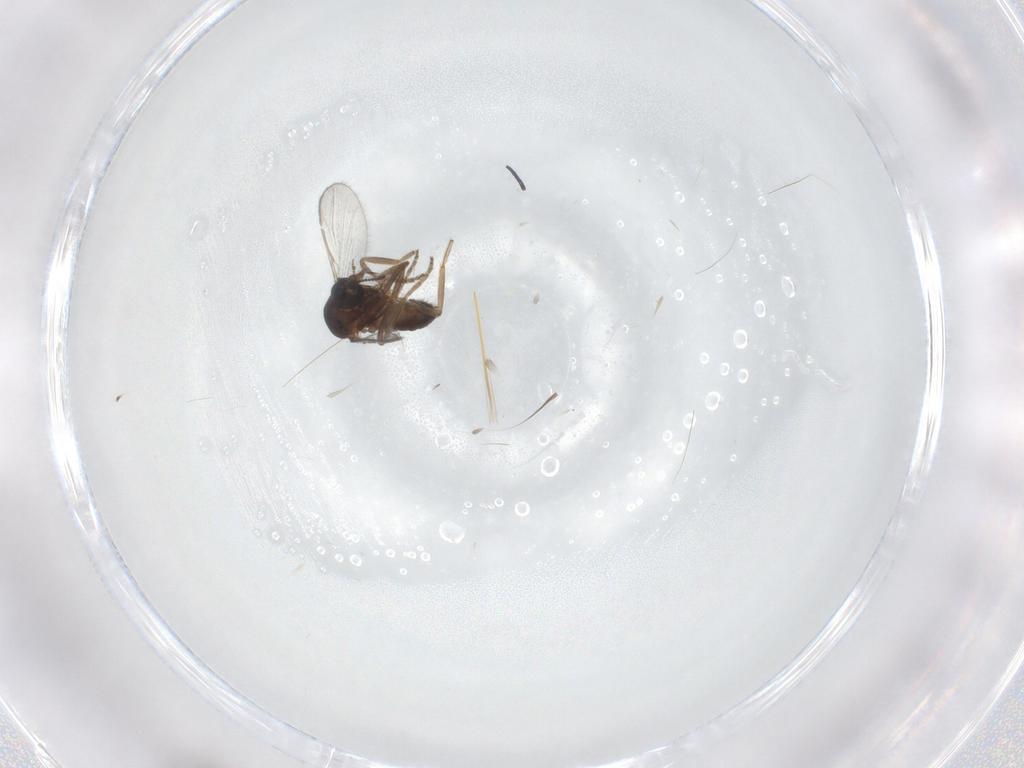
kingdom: Animalia
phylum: Arthropoda
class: Insecta
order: Diptera
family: Ceratopogonidae
